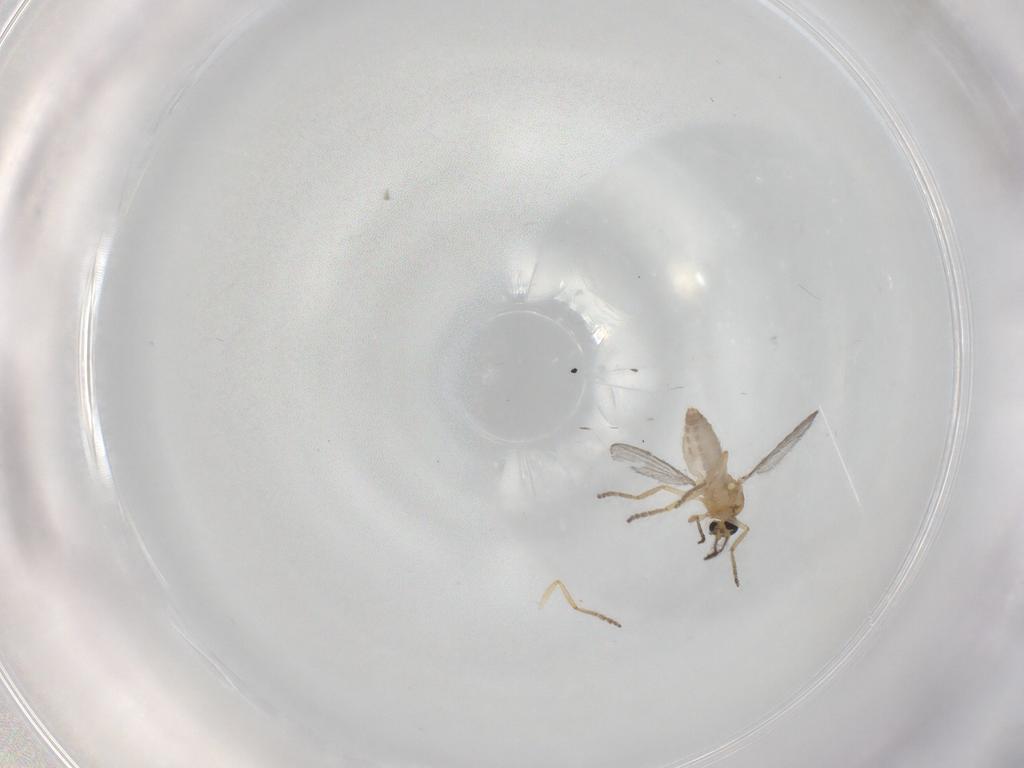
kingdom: Animalia
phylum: Arthropoda
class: Insecta
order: Diptera
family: Ceratopogonidae
